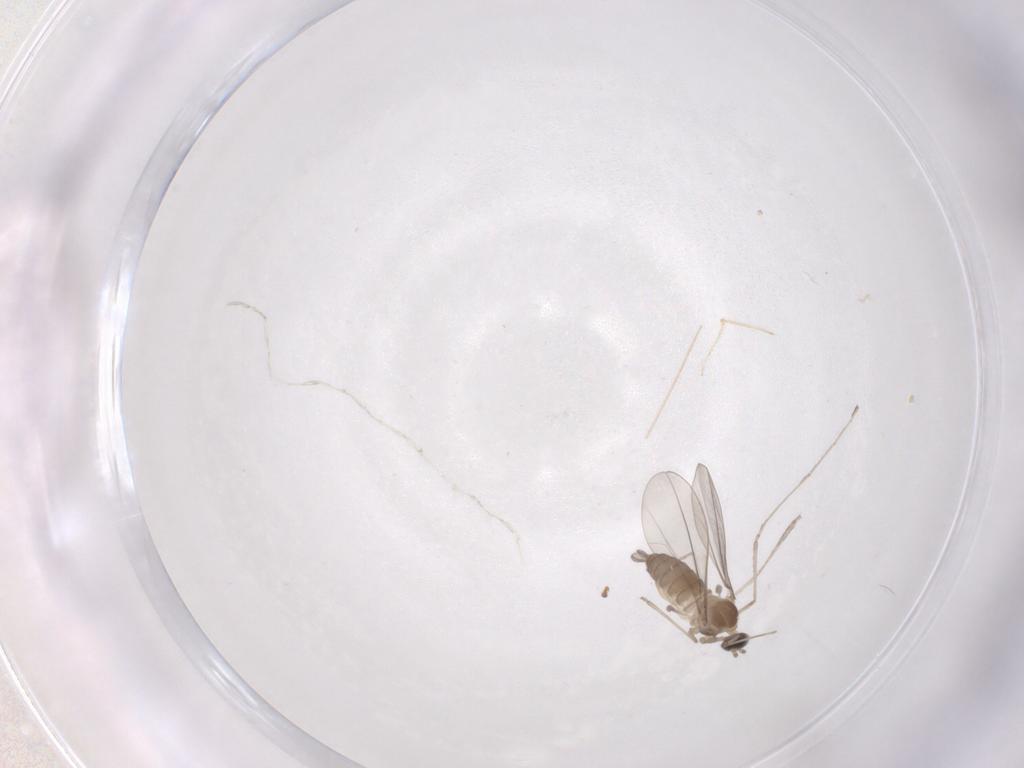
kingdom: Animalia
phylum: Arthropoda
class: Insecta
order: Diptera
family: Cecidomyiidae
